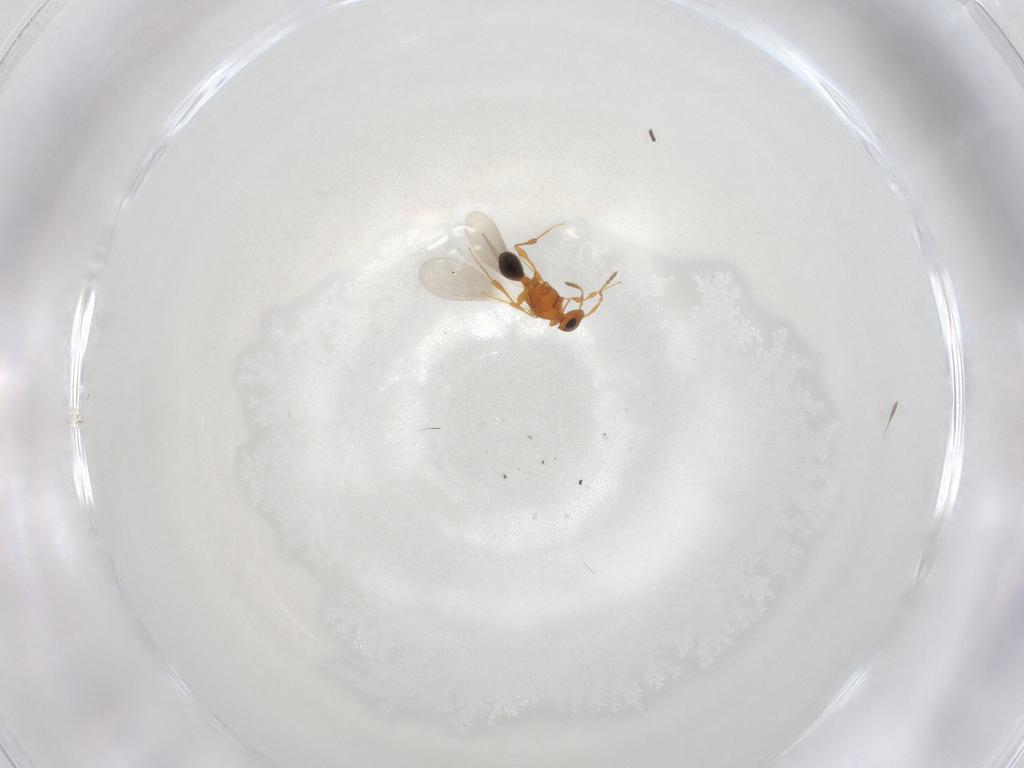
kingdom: Animalia
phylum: Arthropoda
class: Insecta
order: Hymenoptera
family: Platygastridae
